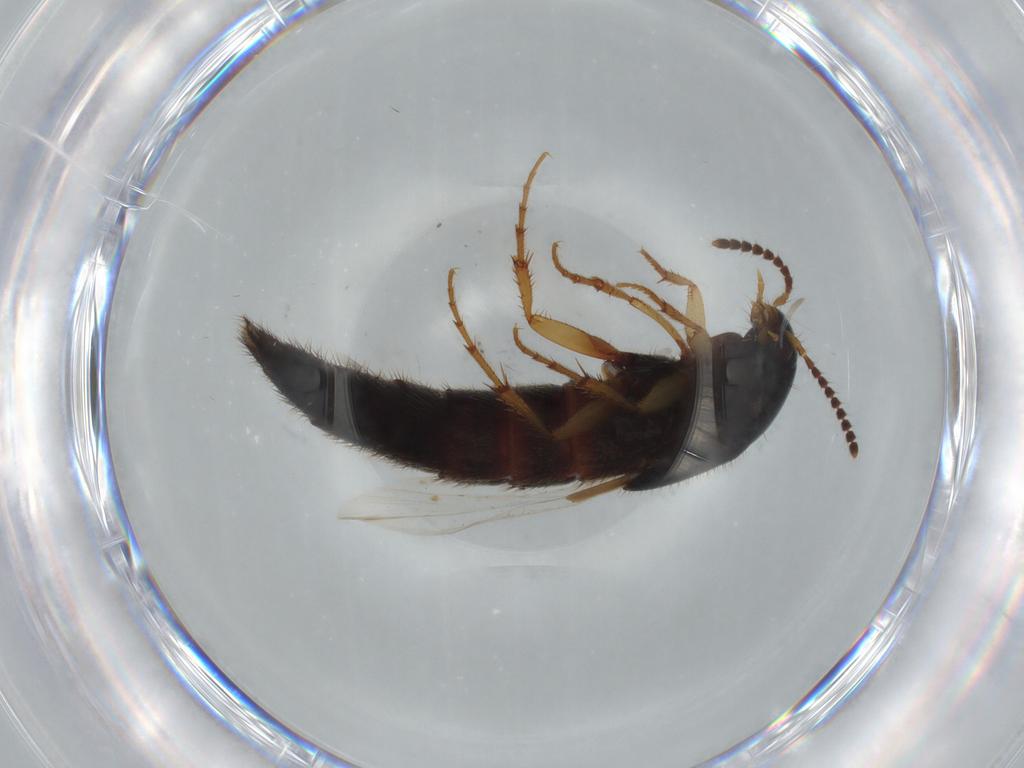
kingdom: Animalia
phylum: Arthropoda
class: Insecta
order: Coleoptera
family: Staphylinidae
